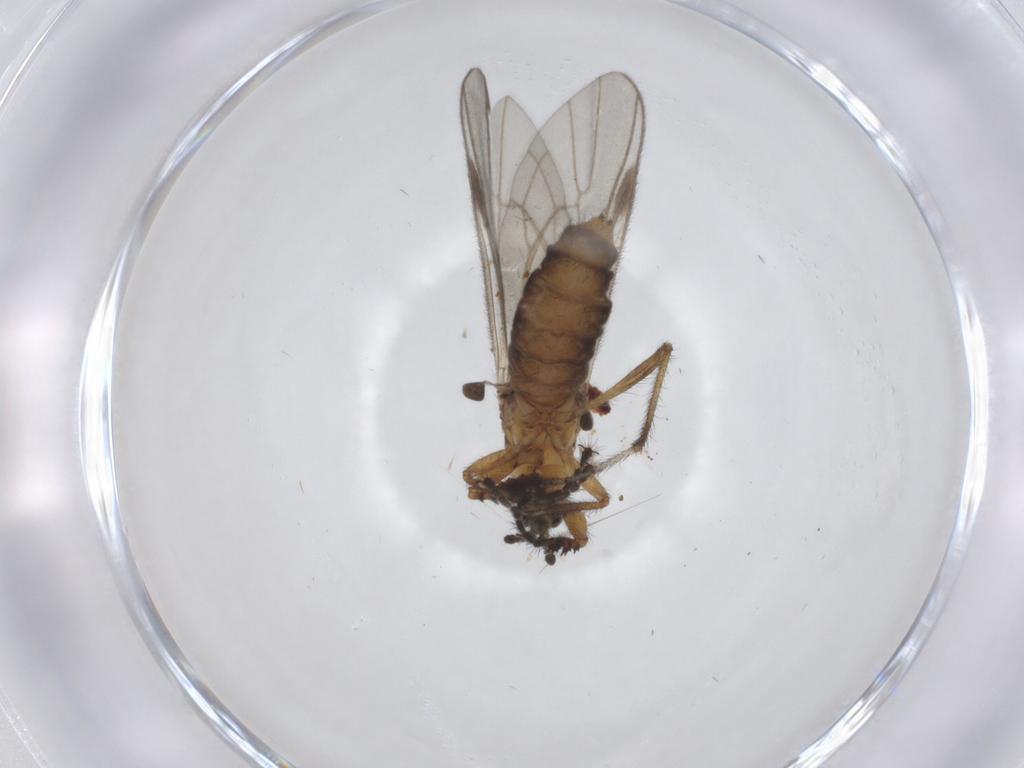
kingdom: Animalia
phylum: Arthropoda
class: Insecta
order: Diptera
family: Bibionidae
